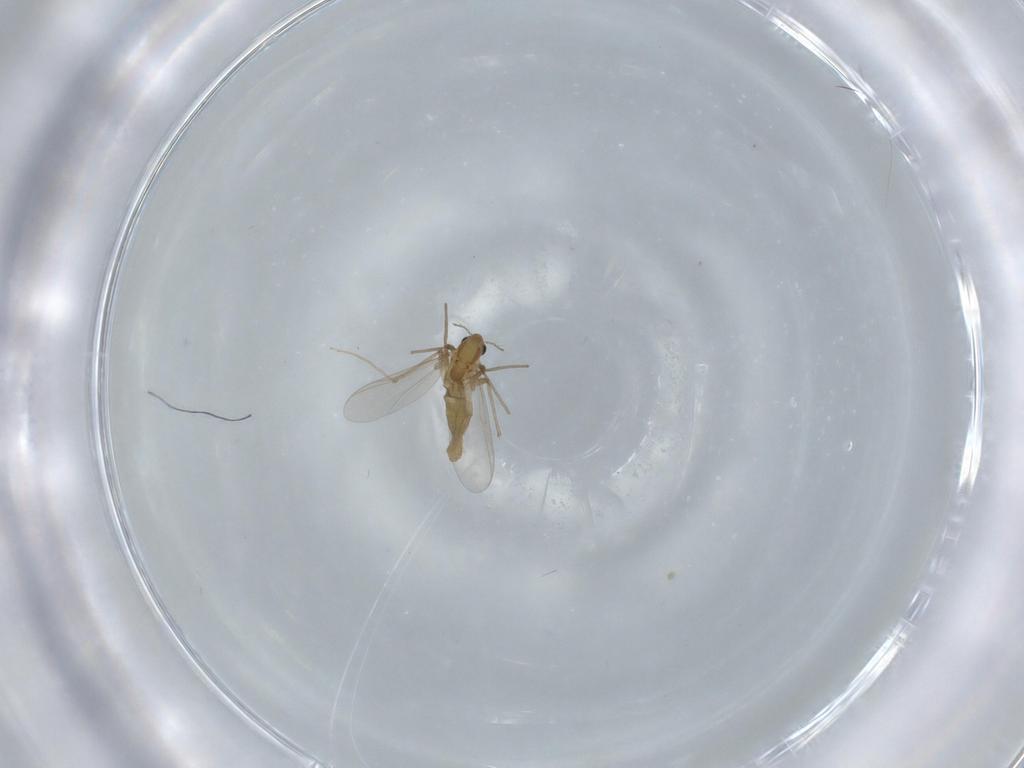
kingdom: Animalia
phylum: Arthropoda
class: Insecta
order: Diptera
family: Chironomidae
